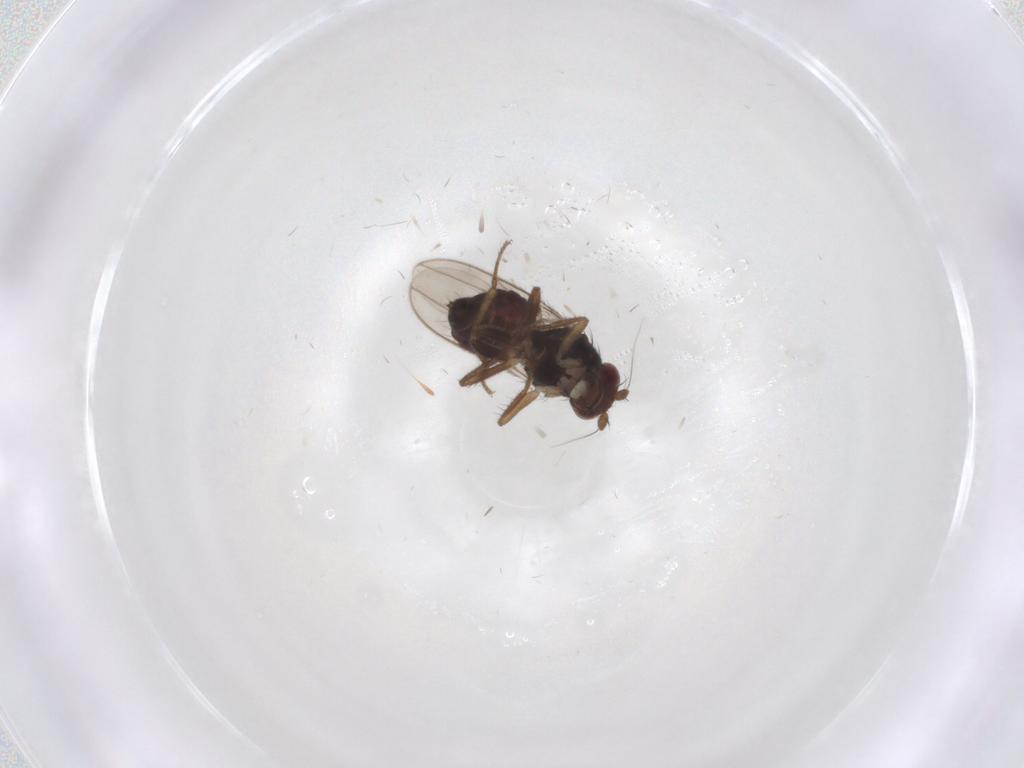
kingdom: Animalia
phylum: Arthropoda
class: Insecta
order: Diptera
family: Sphaeroceridae
